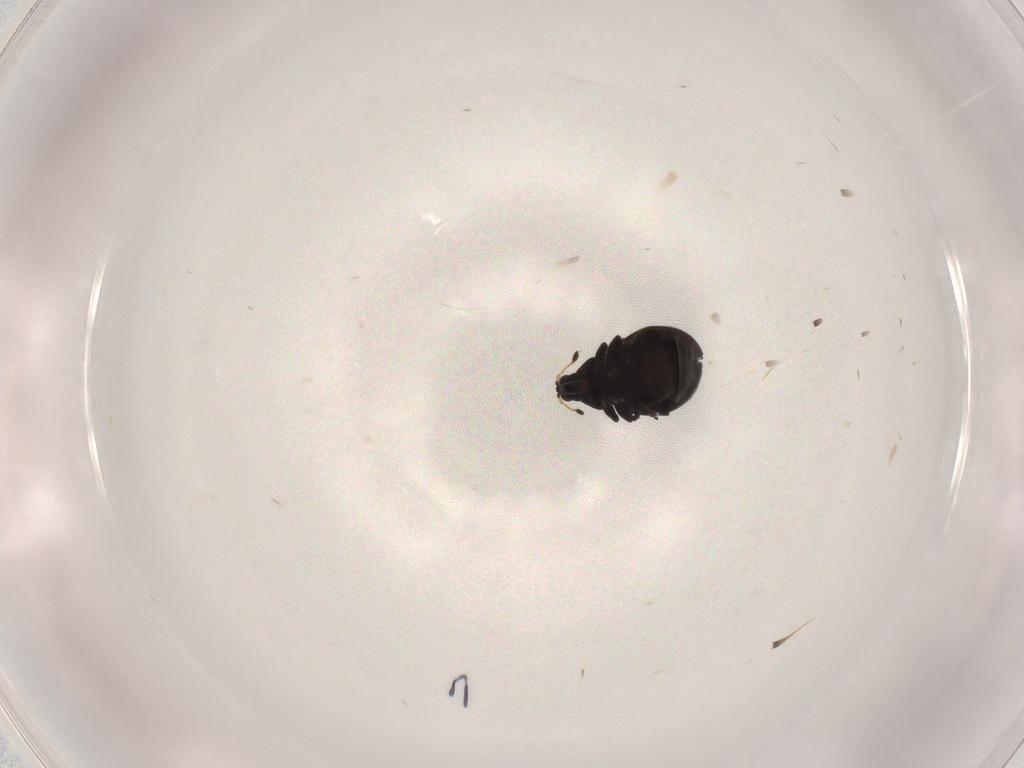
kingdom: Animalia
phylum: Arthropoda
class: Insecta
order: Coleoptera
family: Curculionidae
